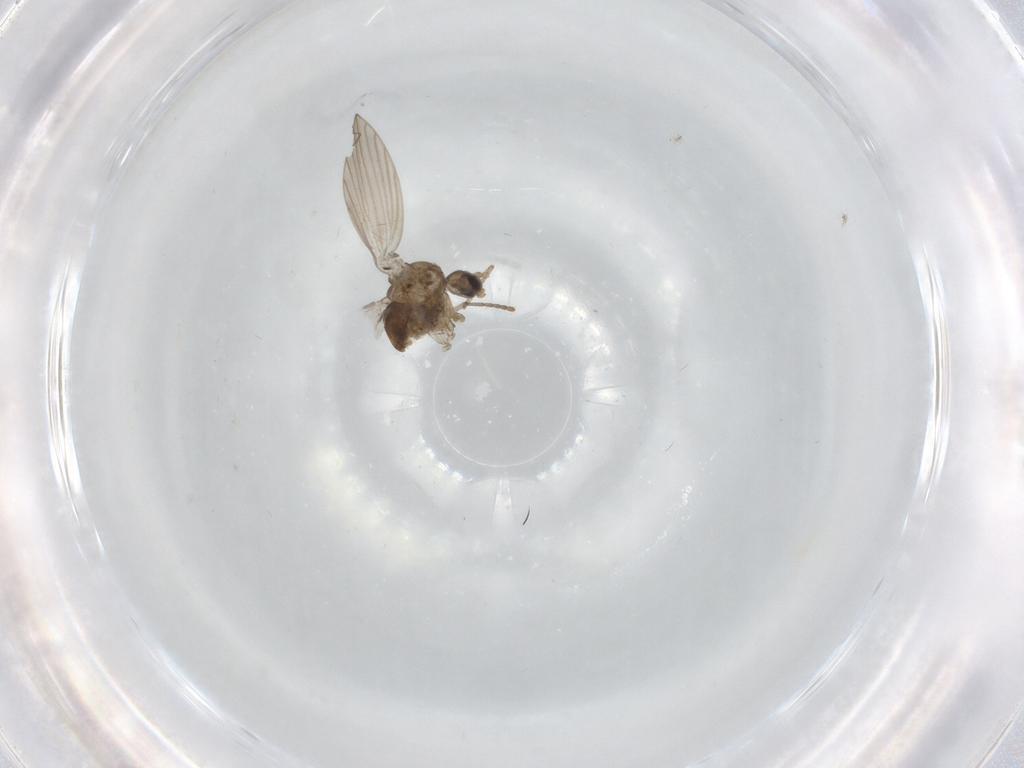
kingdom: Animalia
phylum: Arthropoda
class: Insecta
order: Diptera
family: Psychodidae
